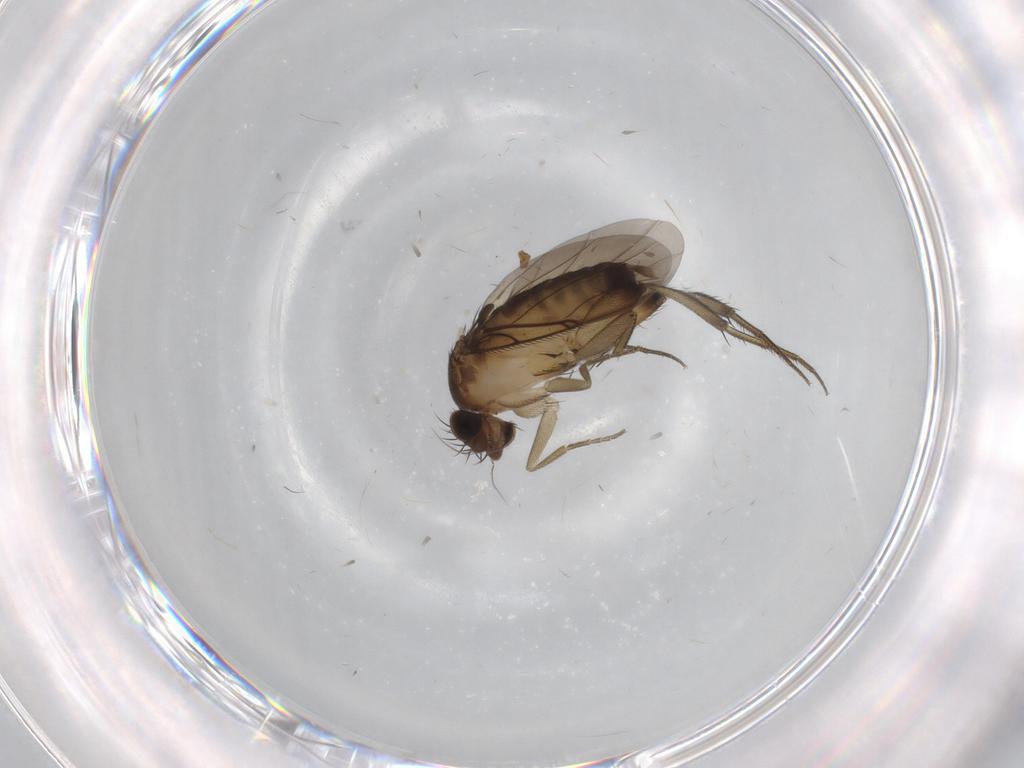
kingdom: Animalia
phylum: Arthropoda
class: Insecta
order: Diptera
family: Phoridae
